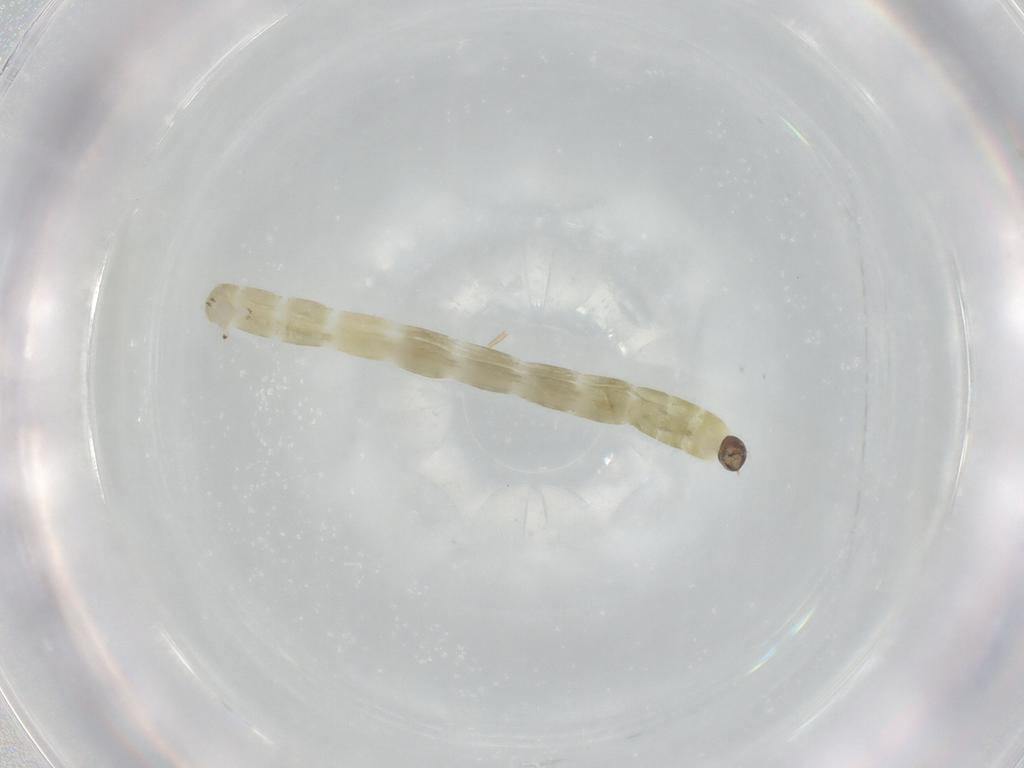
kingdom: Animalia
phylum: Arthropoda
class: Insecta
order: Diptera
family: Chironomidae
